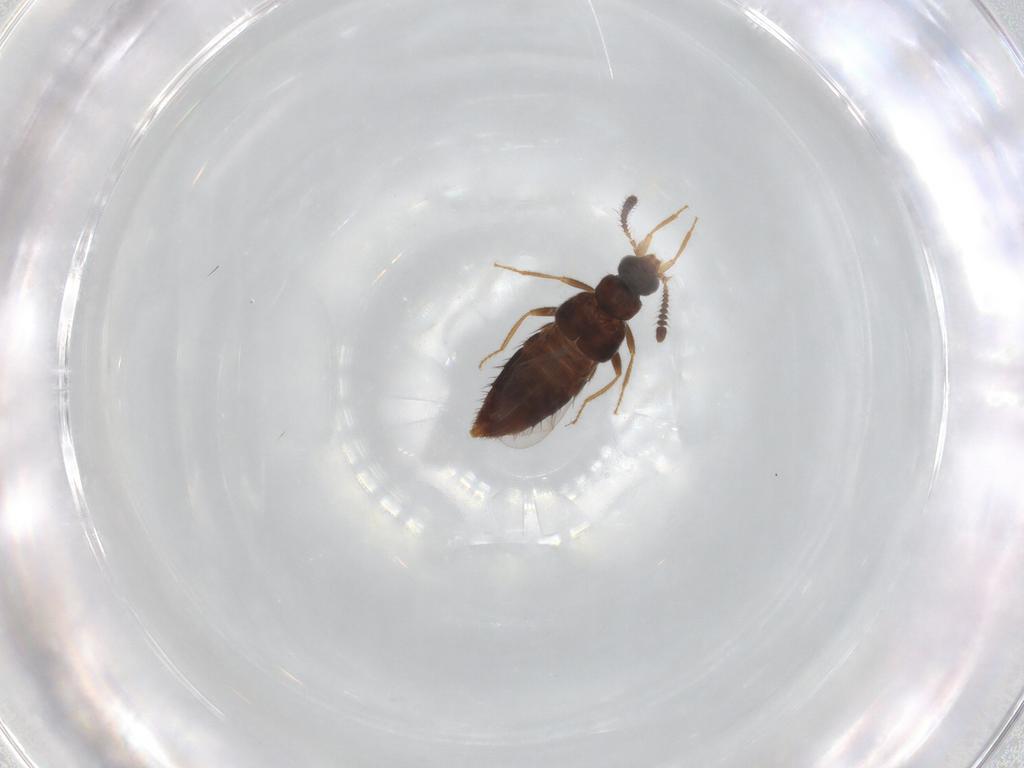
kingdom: Animalia
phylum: Arthropoda
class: Insecta
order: Coleoptera
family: Staphylinidae
